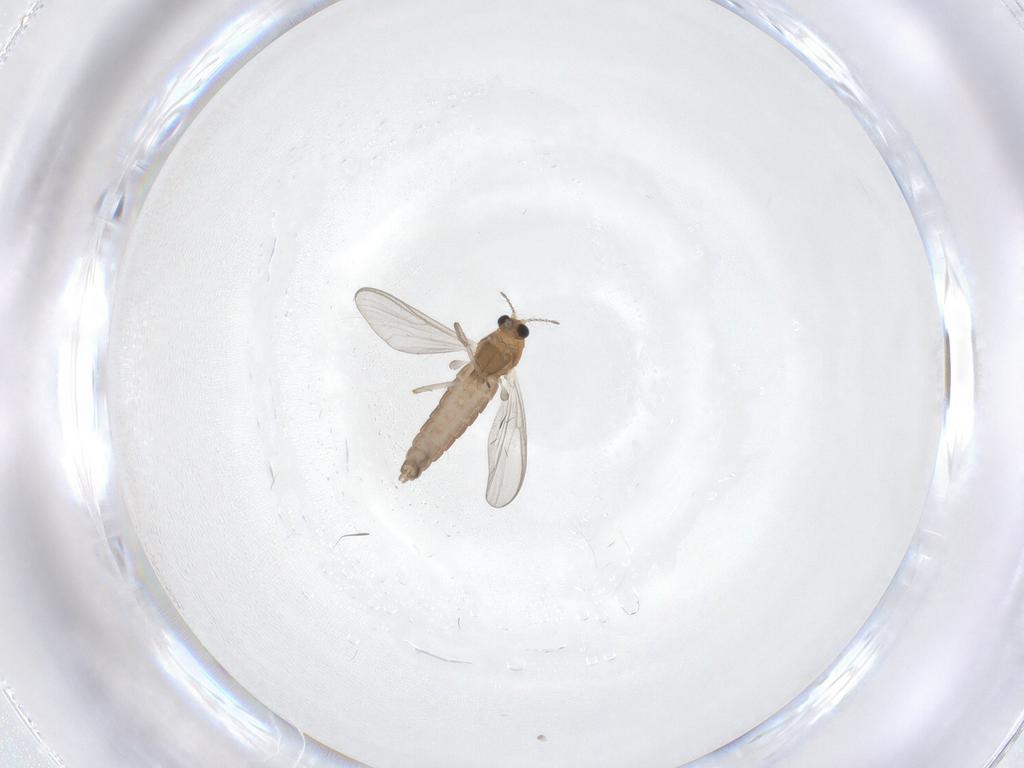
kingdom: Animalia
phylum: Arthropoda
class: Insecta
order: Diptera
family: Chironomidae
